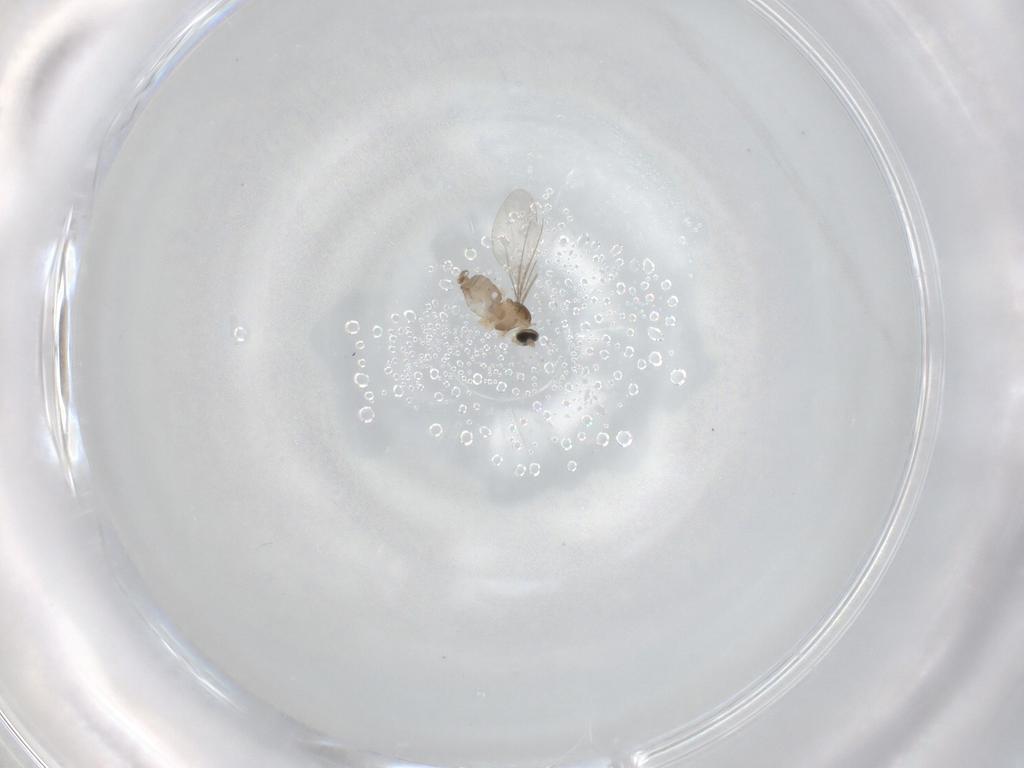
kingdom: Animalia
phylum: Arthropoda
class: Insecta
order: Diptera
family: Cecidomyiidae
